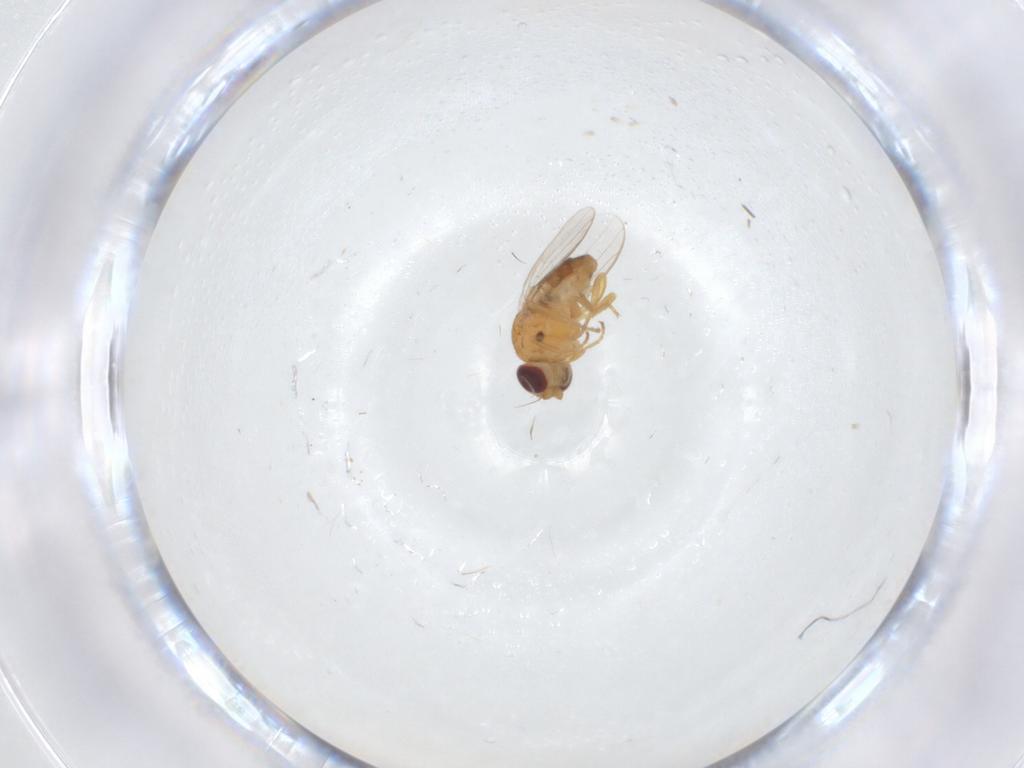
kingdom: Animalia
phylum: Arthropoda
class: Insecta
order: Diptera
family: Chloropidae
